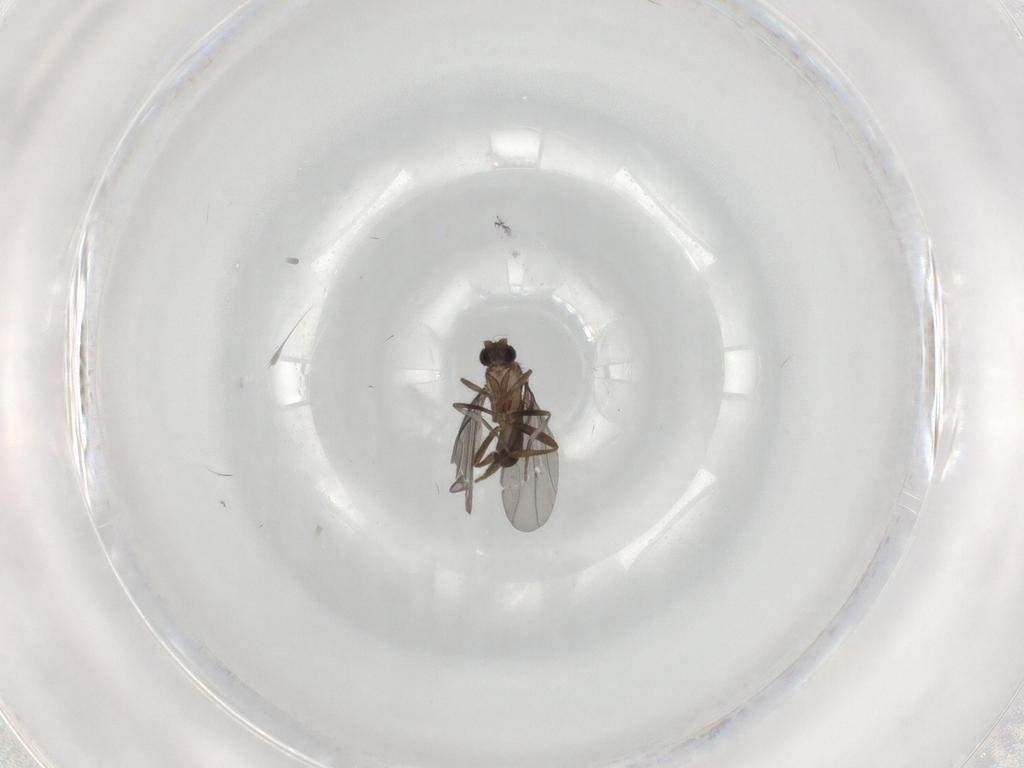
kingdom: Animalia
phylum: Arthropoda
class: Insecta
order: Diptera
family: Phoridae
